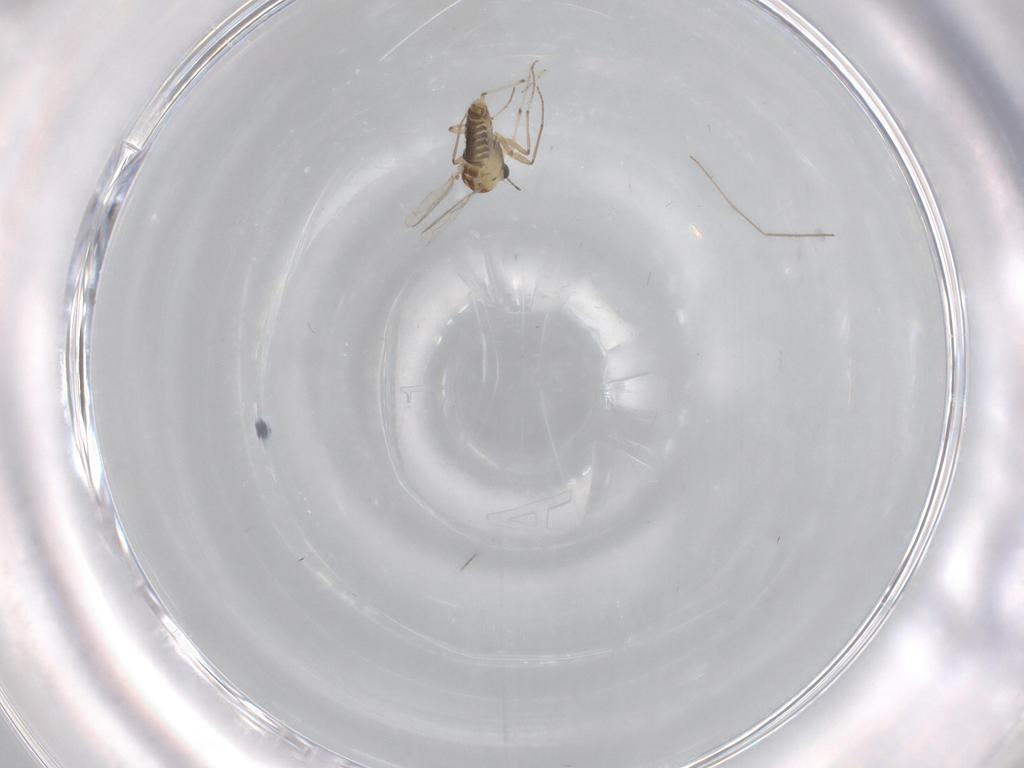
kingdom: Animalia
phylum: Arthropoda
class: Insecta
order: Diptera
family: Chironomidae
